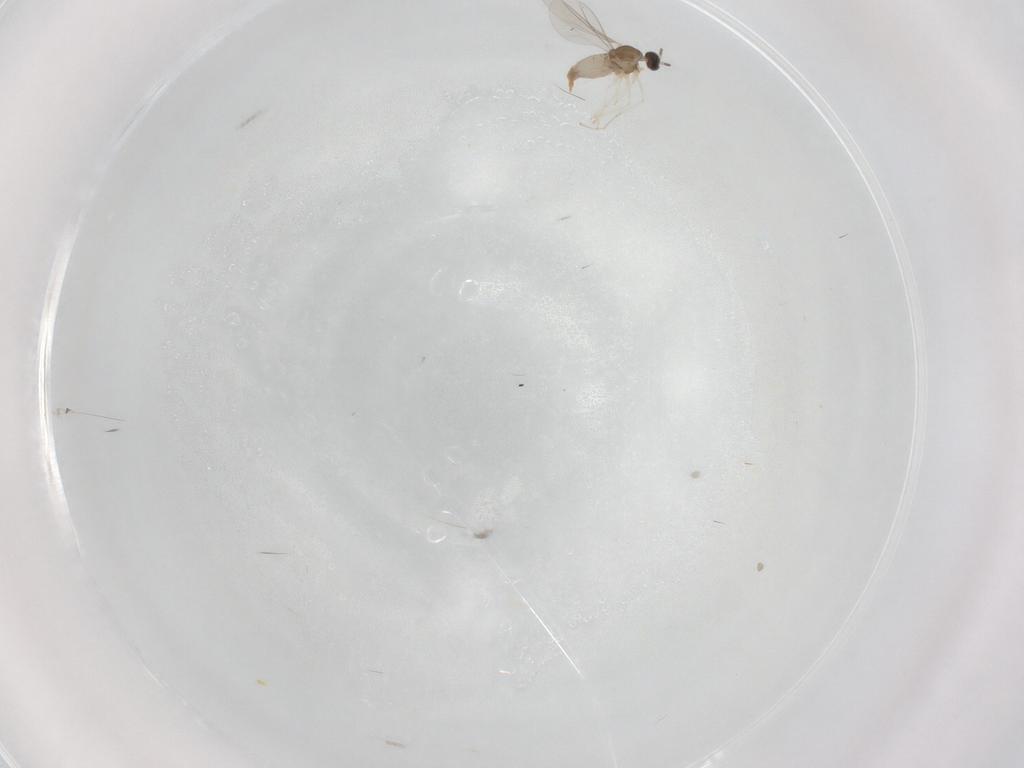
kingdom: Animalia
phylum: Arthropoda
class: Insecta
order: Diptera
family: Cecidomyiidae
